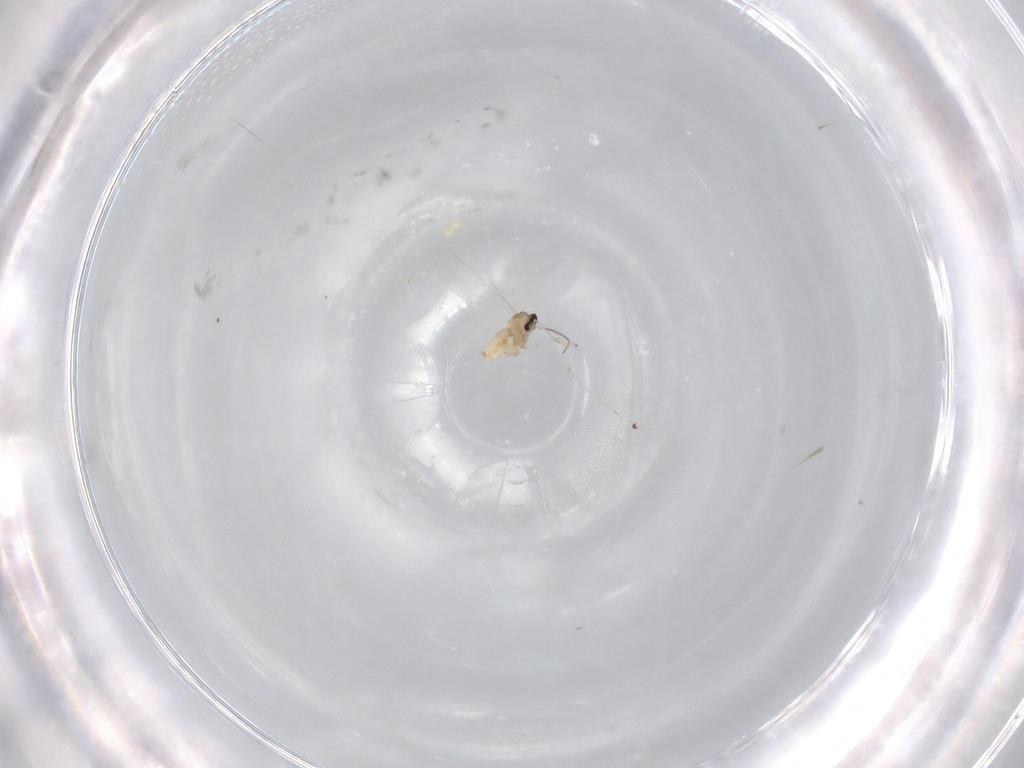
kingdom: Animalia
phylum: Arthropoda
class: Insecta
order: Diptera
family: Cecidomyiidae
